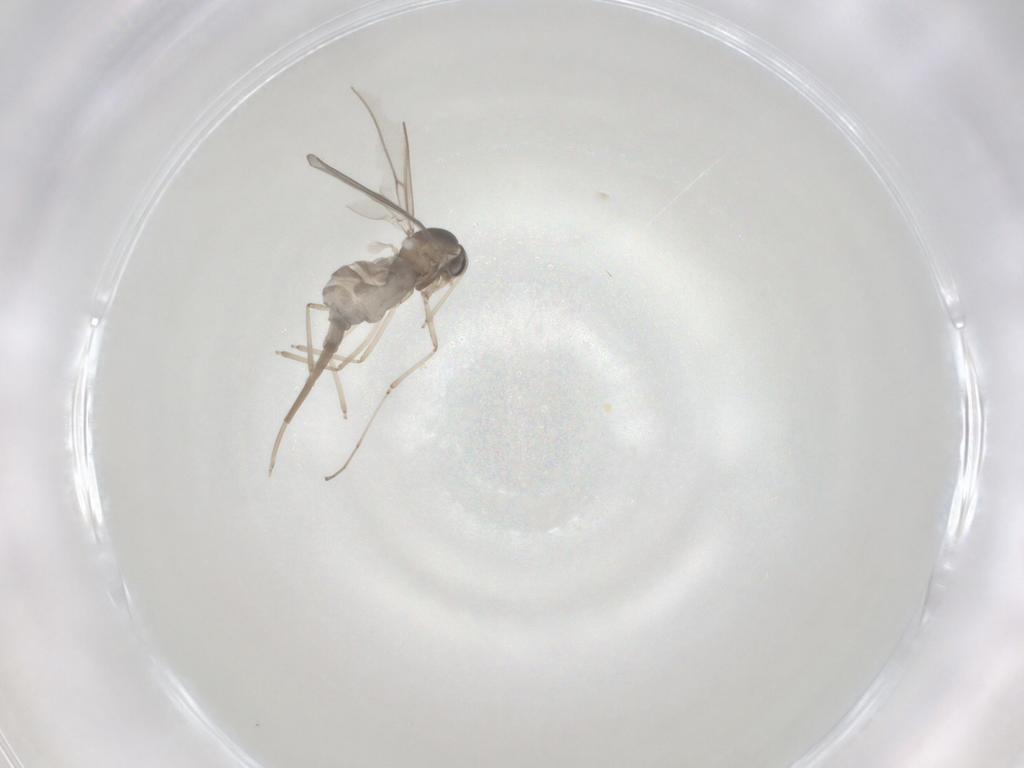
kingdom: Animalia
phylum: Arthropoda
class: Insecta
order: Diptera
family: Cecidomyiidae
